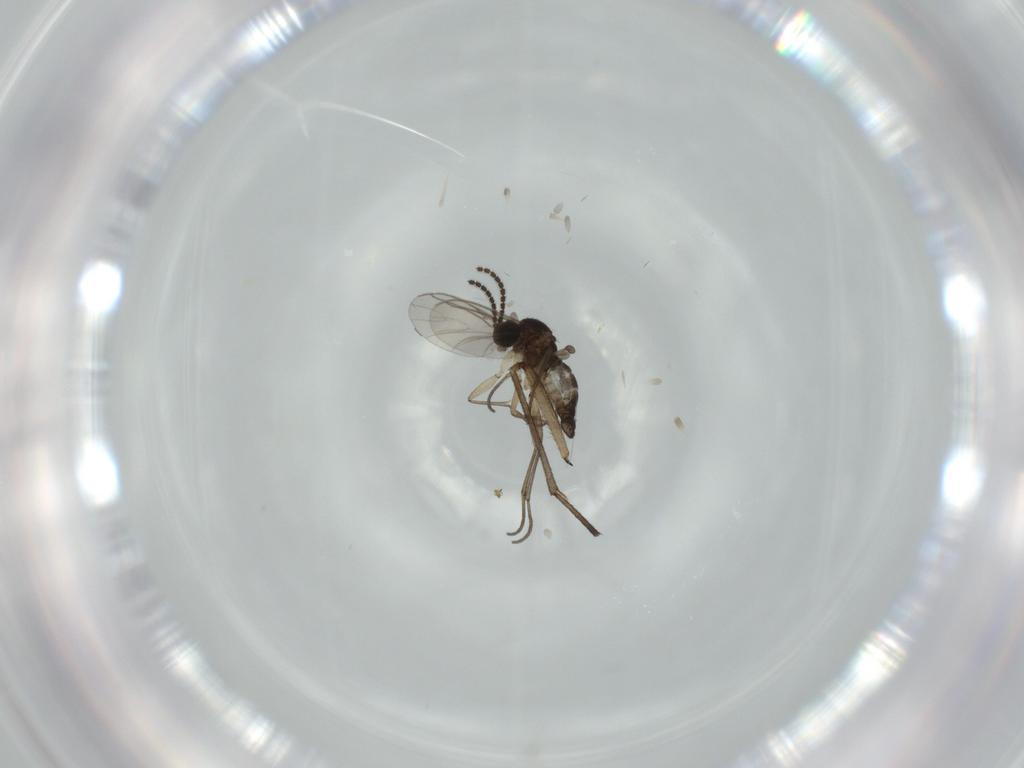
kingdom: Animalia
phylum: Arthropoda
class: Insecta
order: Diptera
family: Sciaridae
